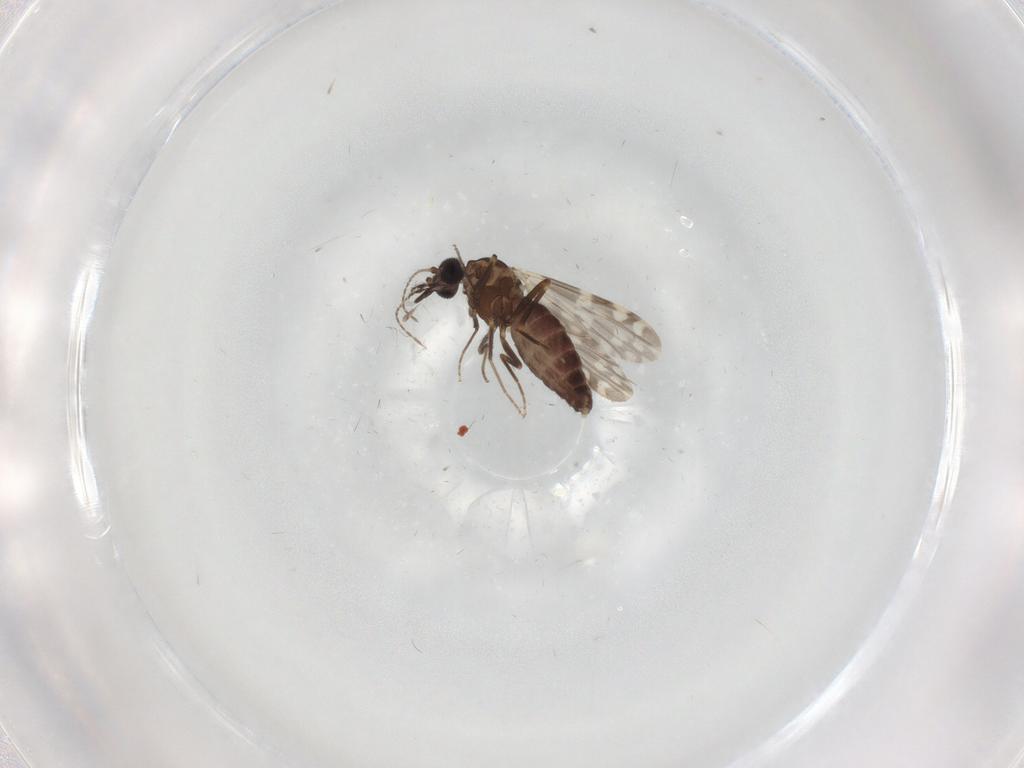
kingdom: Animalia
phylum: Arthropoda
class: Insecta
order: Diptera
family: Ceratopogonidae
